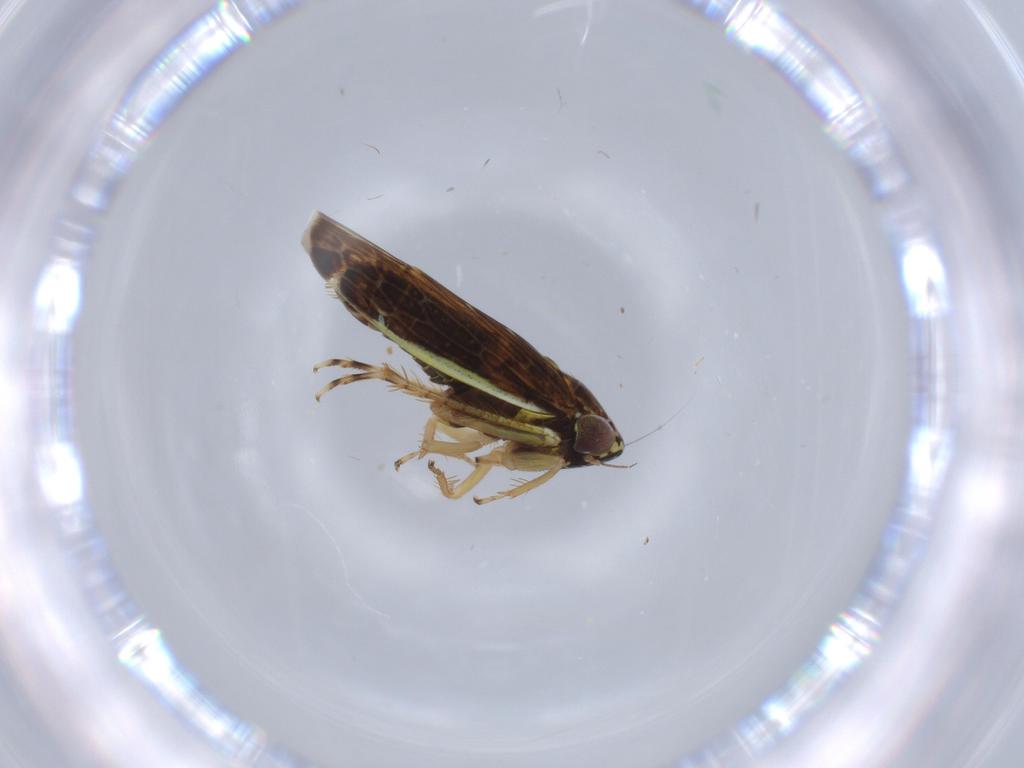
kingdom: Animalia
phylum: Arthropoda
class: Insecta
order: Hemiptera
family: Cicadellidae
